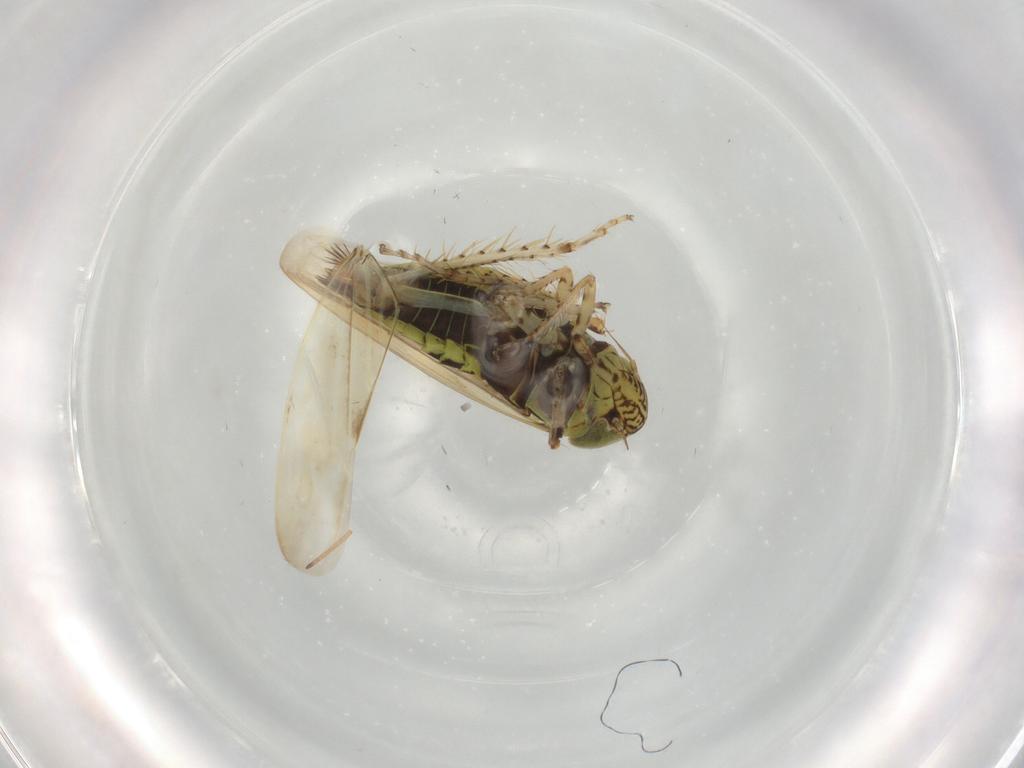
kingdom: Animalia
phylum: Arthropoda
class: Insecta
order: Hemiptera
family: Cicadellidae
